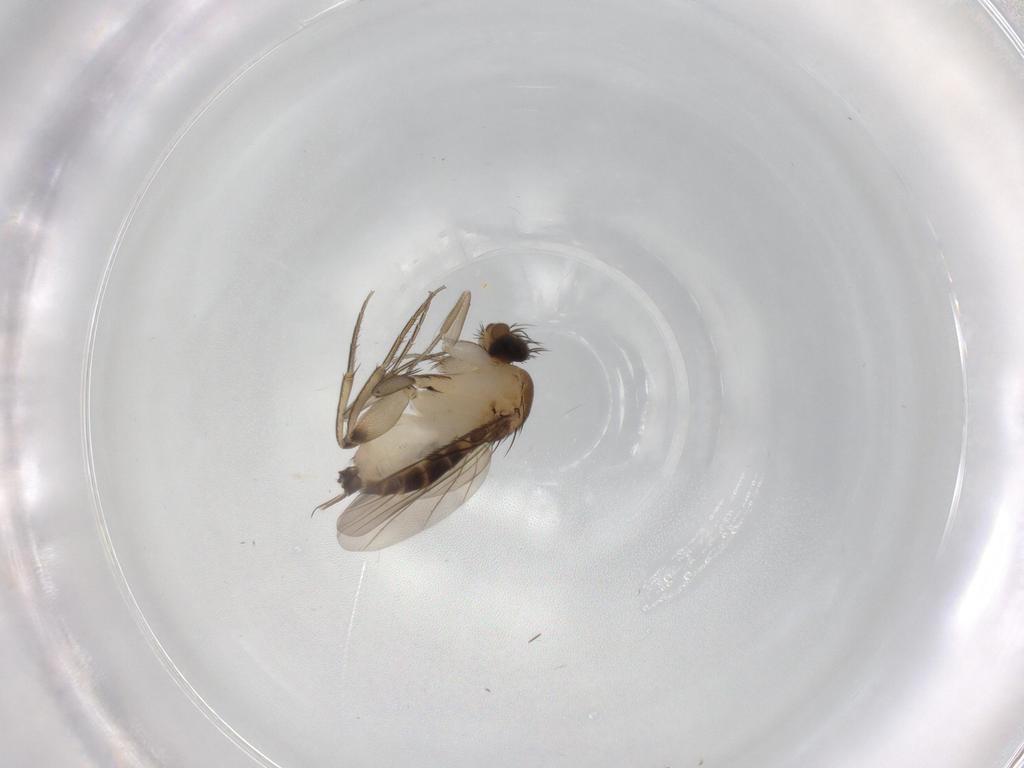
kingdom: Animalia
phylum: Arthropoda
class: Insecta
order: Diptera
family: Phoridae
